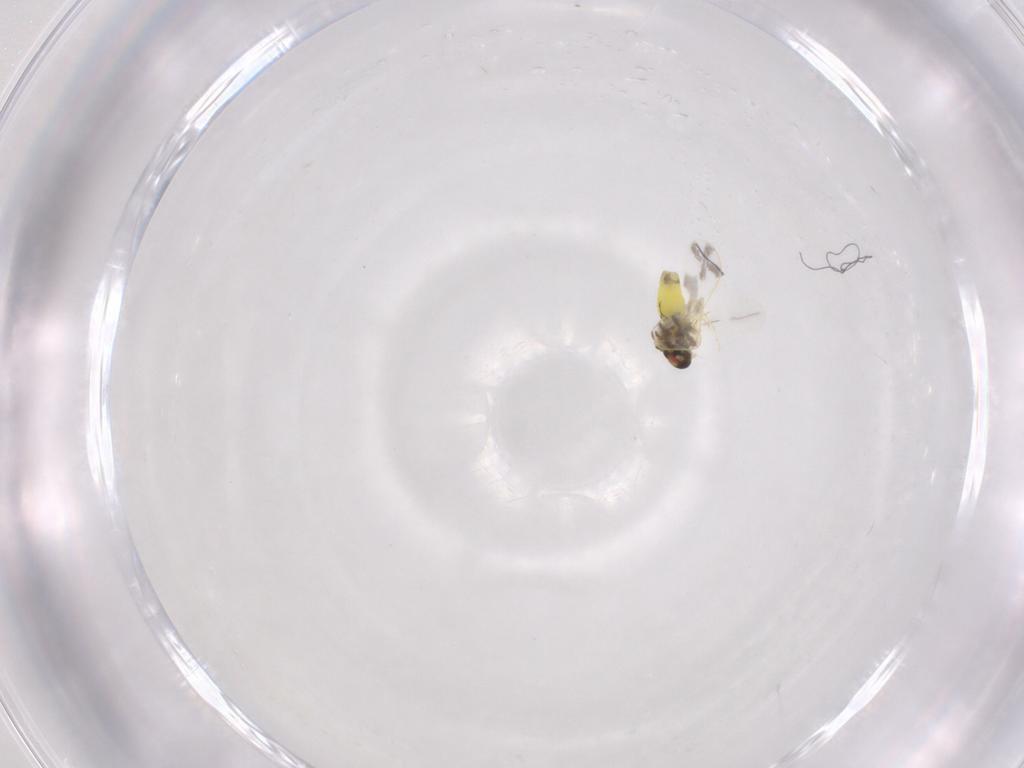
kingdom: Animalia
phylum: Arthropoda
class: Insecta
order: Hemiptera
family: Aleyrodidae
